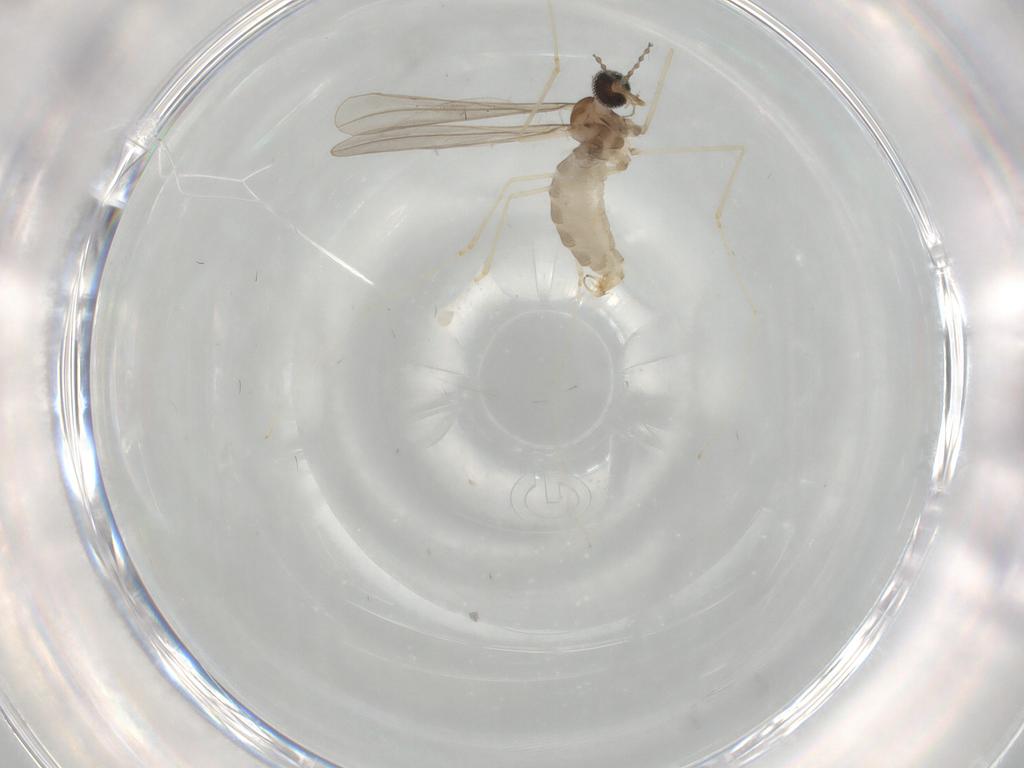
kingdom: Animalia
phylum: Arthropoda
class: Insecta
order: Diptera
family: Cecidomyiidae
